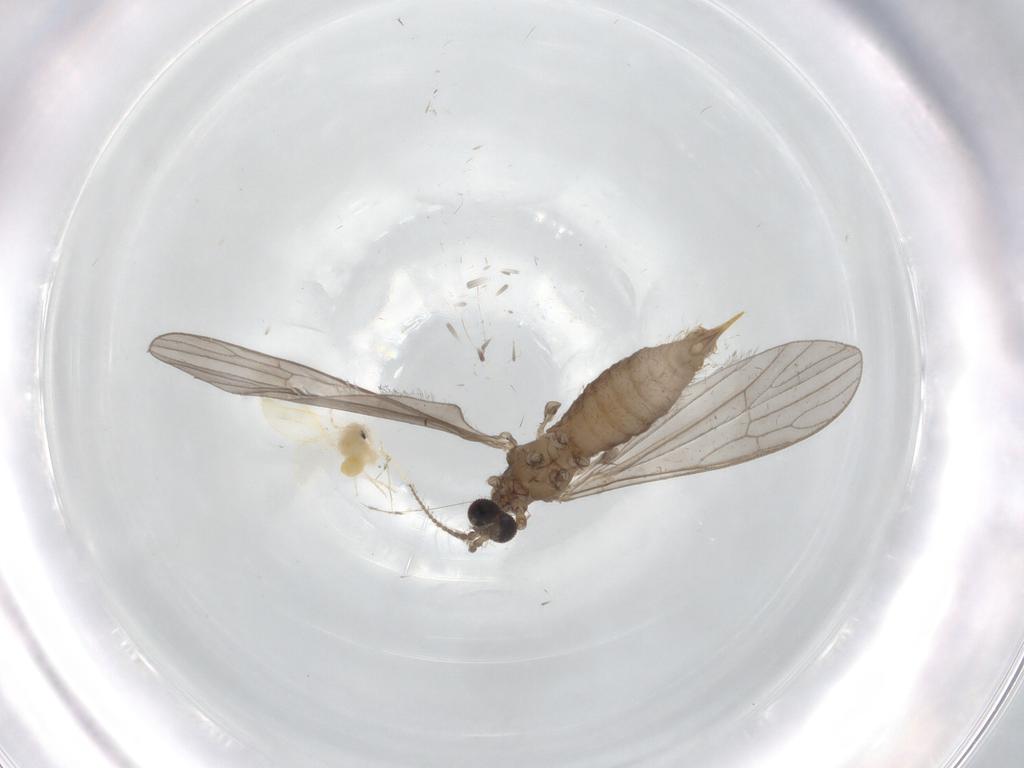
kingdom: Animalia
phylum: Arthropoda
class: Insecta
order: Diptera
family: Limoniidae
